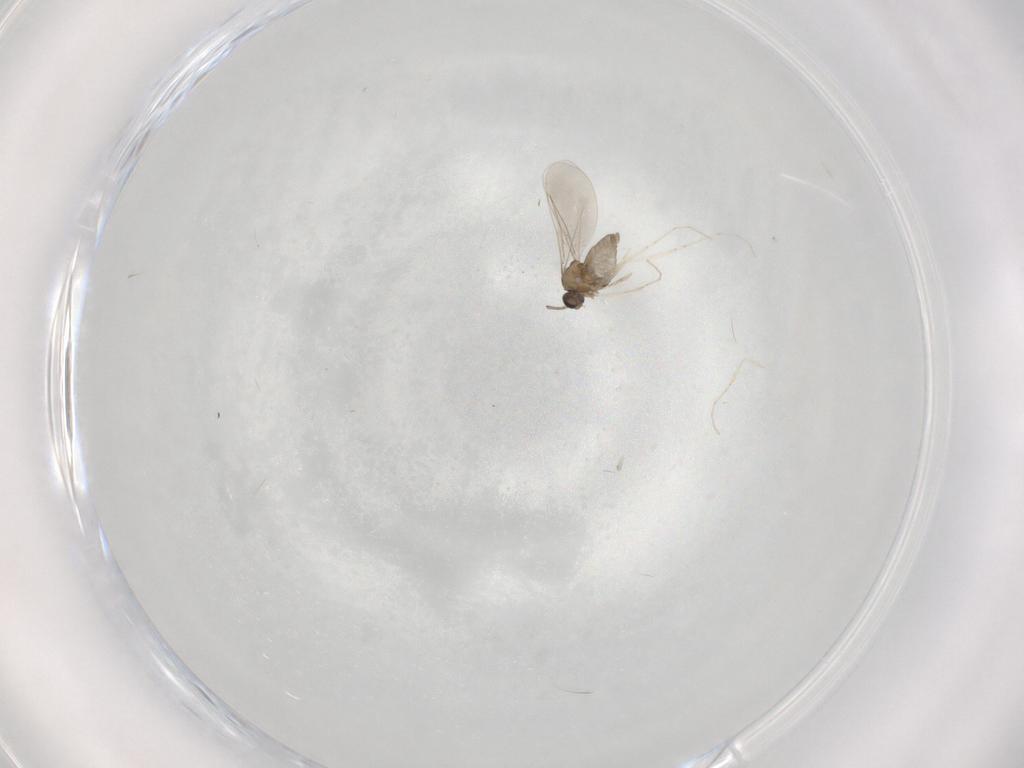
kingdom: Animalia
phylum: Arthropoda
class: Insecta
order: Diptera
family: Cecidomyiidae
